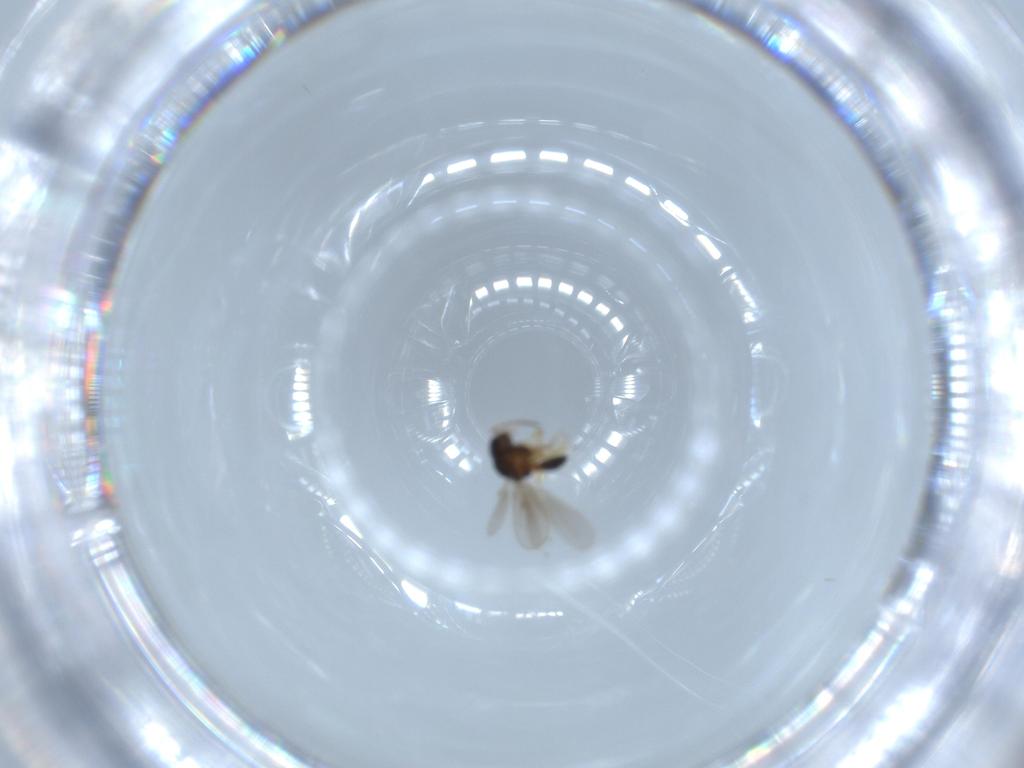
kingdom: Animalia
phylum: Arthropoda
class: Insecta
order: Hymenoptera
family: Scelionidae
